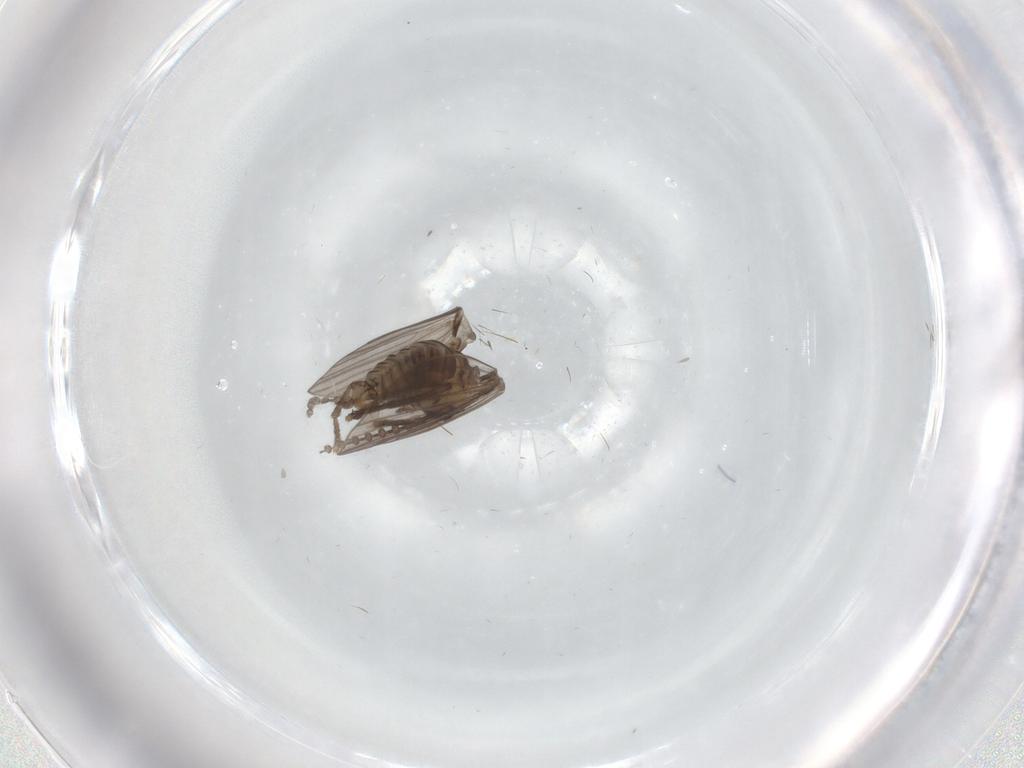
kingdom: Animalia
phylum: Arthropoda
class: Insecta
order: Diptera
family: Psychodidae
